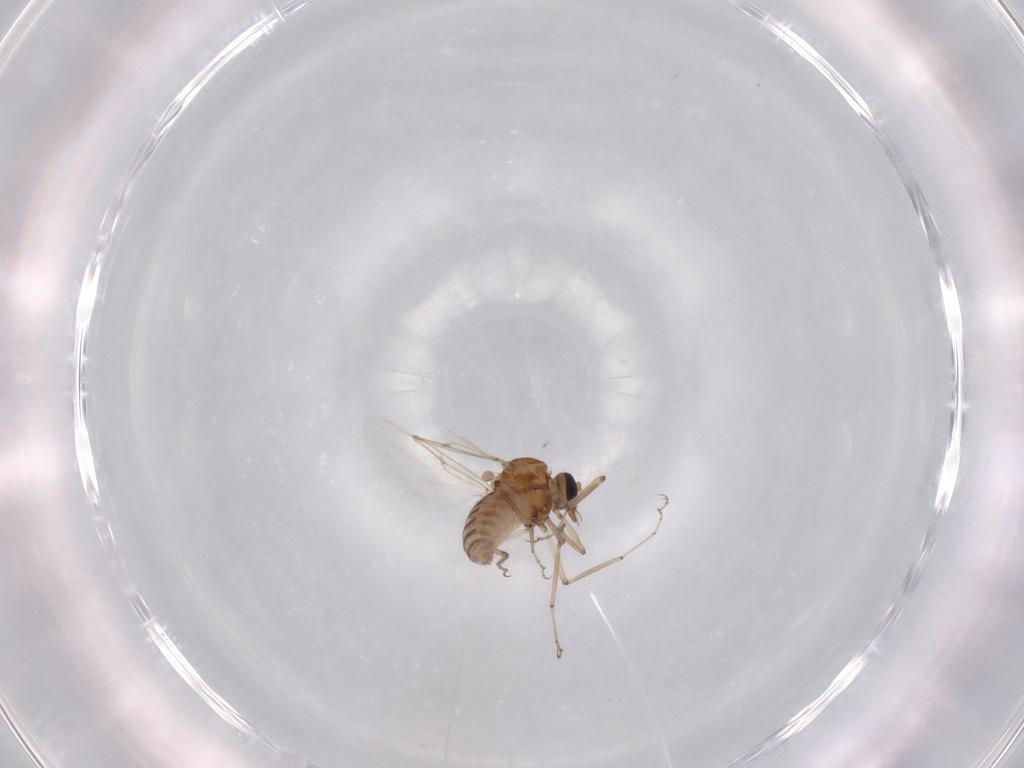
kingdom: Animalia
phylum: Arthropoda
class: Insecta
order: Diptera
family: Ceratopogonidae
